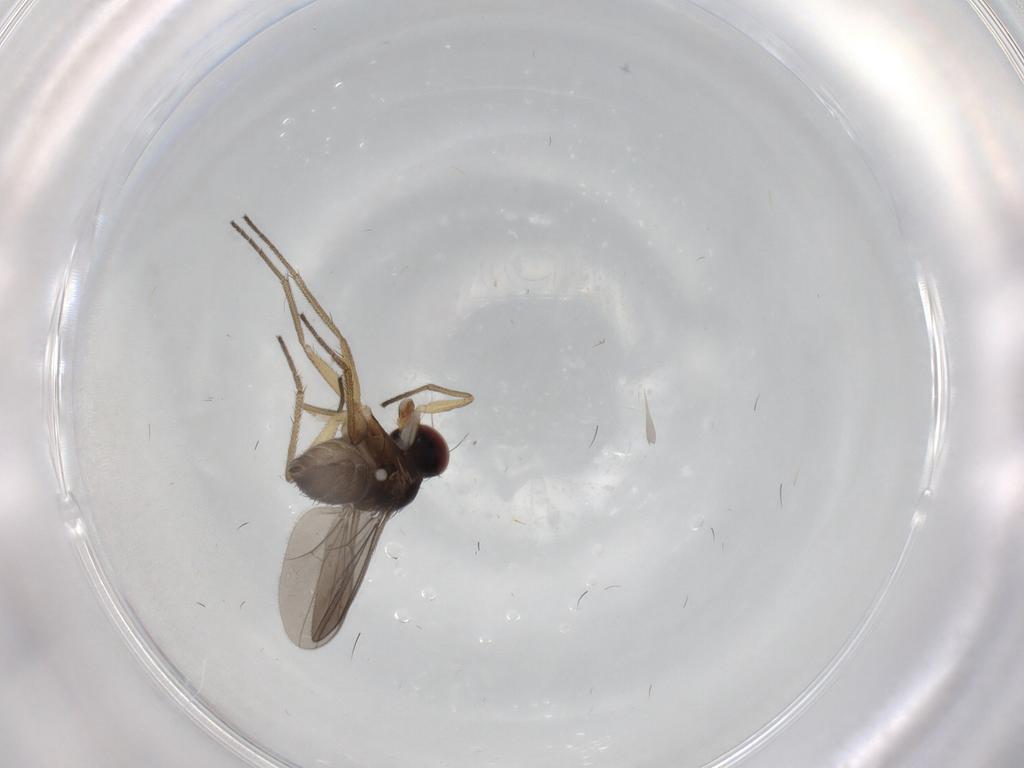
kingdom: Animalia
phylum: Arthropoda
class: Insecta
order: Diptera
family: Dolichopodidae
